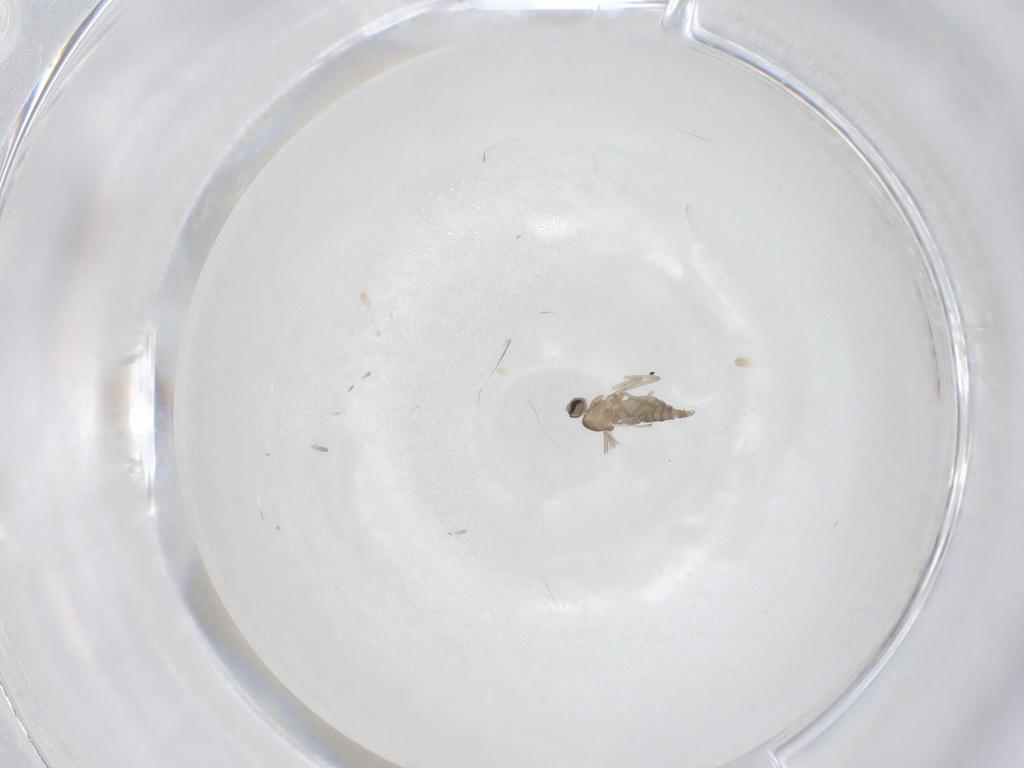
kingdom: Animalia
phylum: Arthropoda
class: Insecta
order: Diptera
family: Cecidomyiidae
